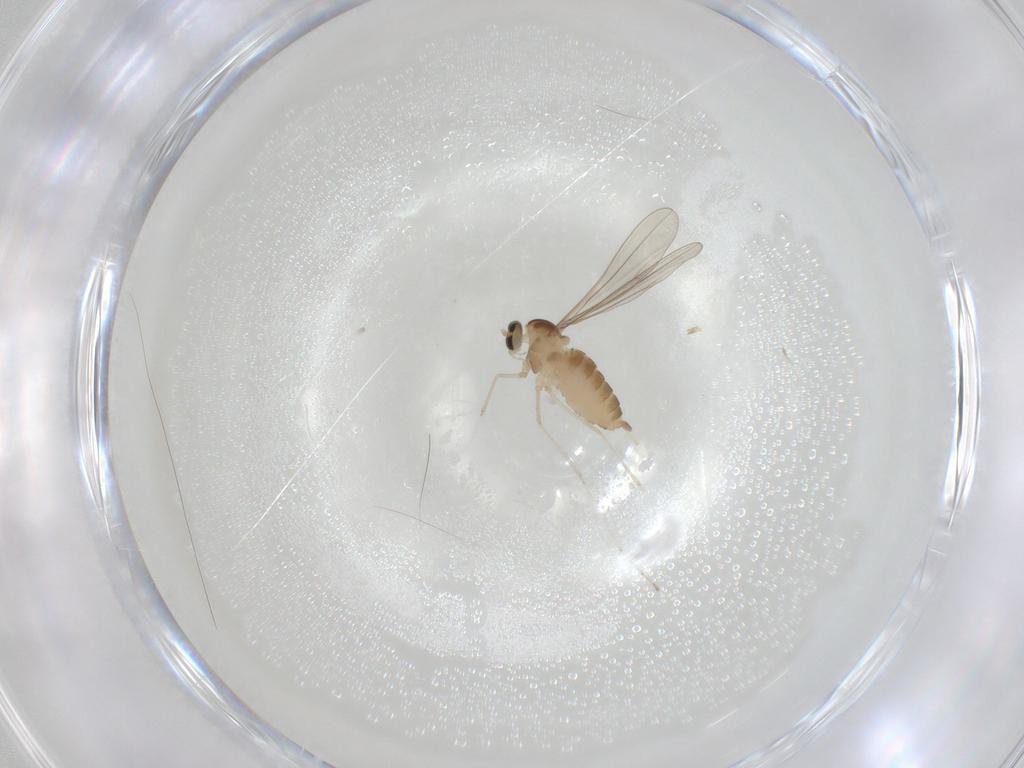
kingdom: Animalia
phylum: Arthropoda
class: Insecta
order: Diptera
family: Cecidomyiidae
